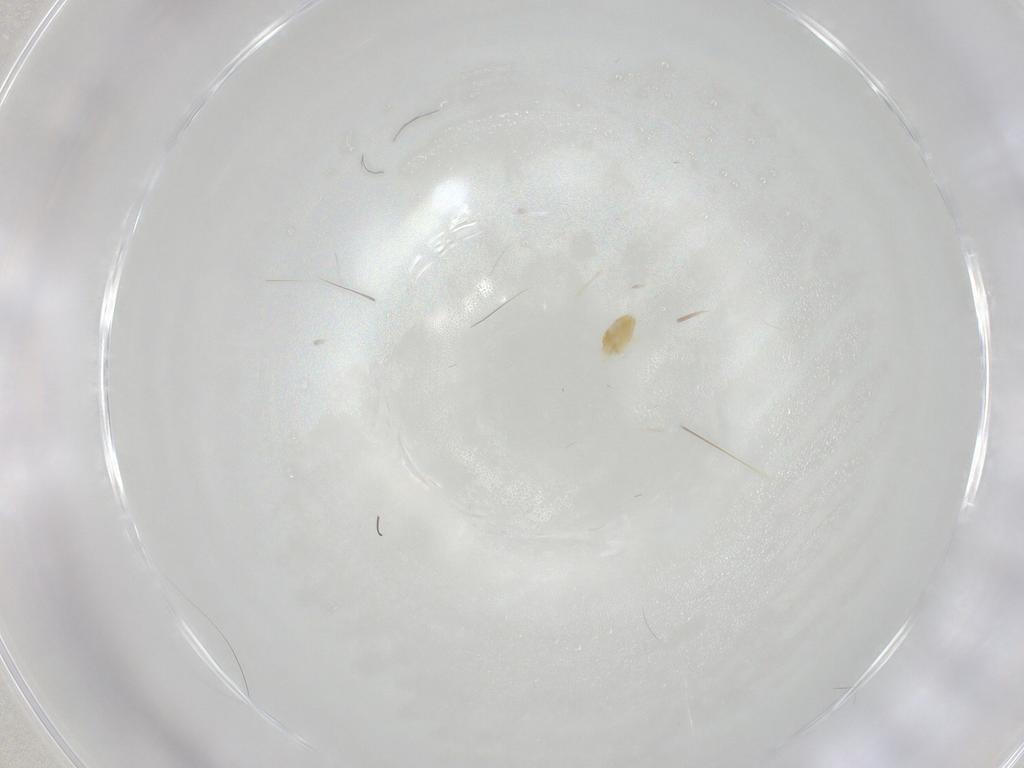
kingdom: Animalia
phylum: Arthropoda
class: Arachnida
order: Trombidiformes
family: Eupodidae
